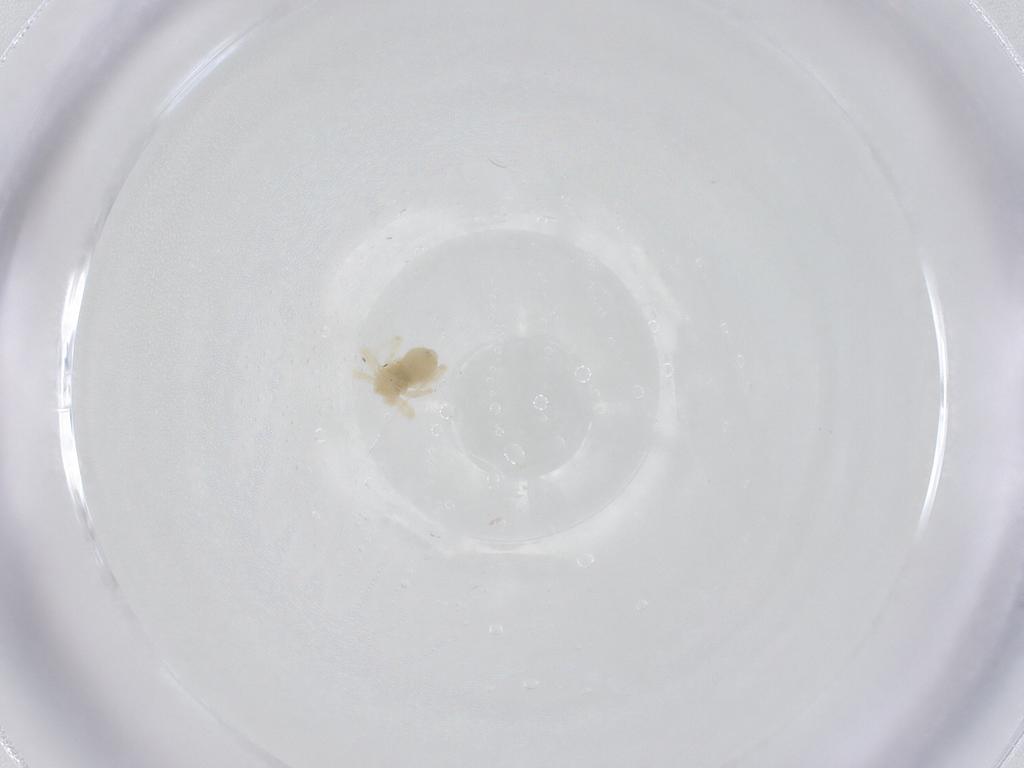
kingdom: Animalia
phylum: Arthropoda
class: Arachnida
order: Trombidiformes
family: Anystidae
